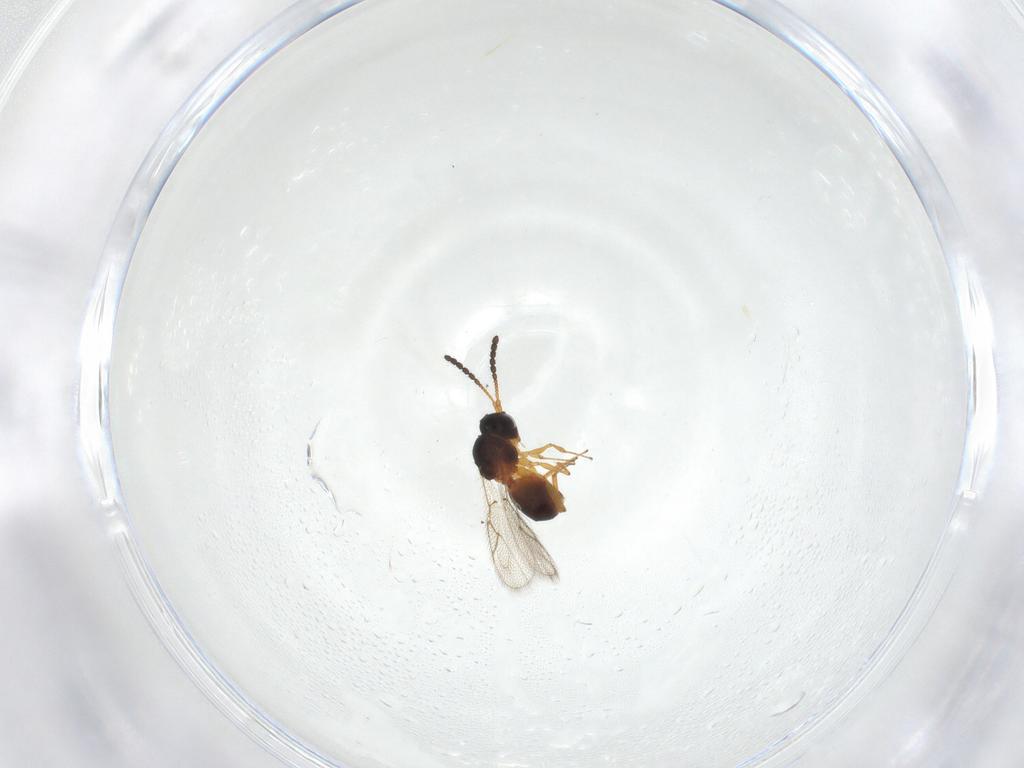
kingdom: Animalia
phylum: Arthropoda
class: Insecta
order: Hymenoptera
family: Figitidae
